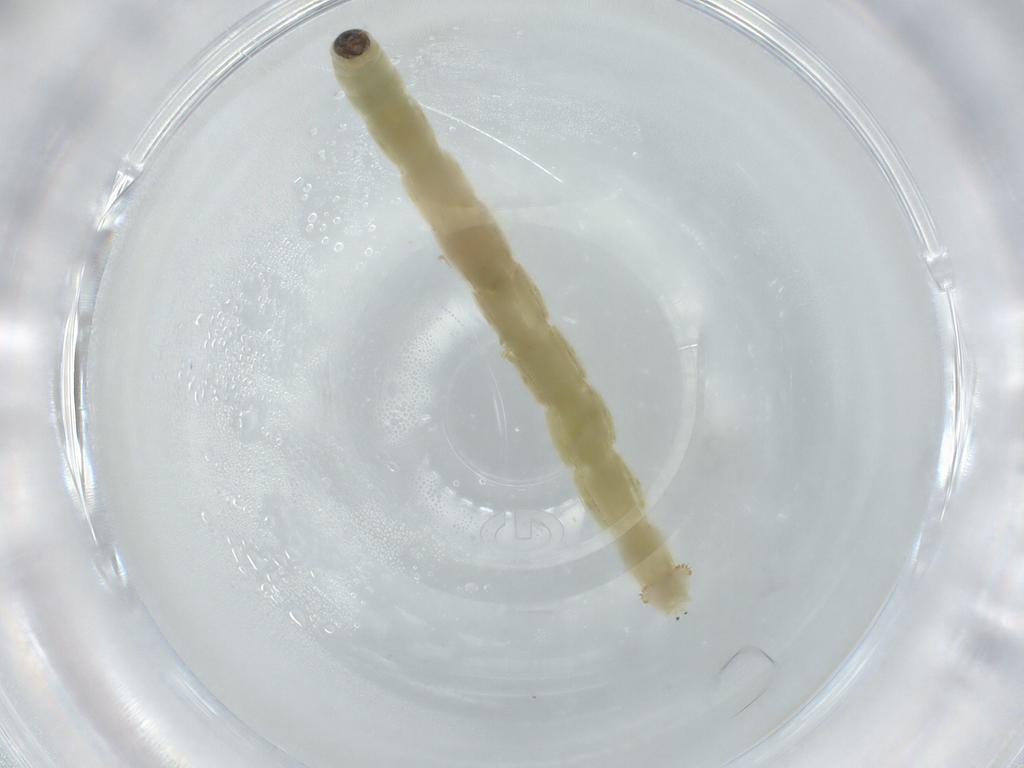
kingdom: Animalia
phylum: Arthropoda
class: Insecta
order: Diptera
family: Chironomidae
